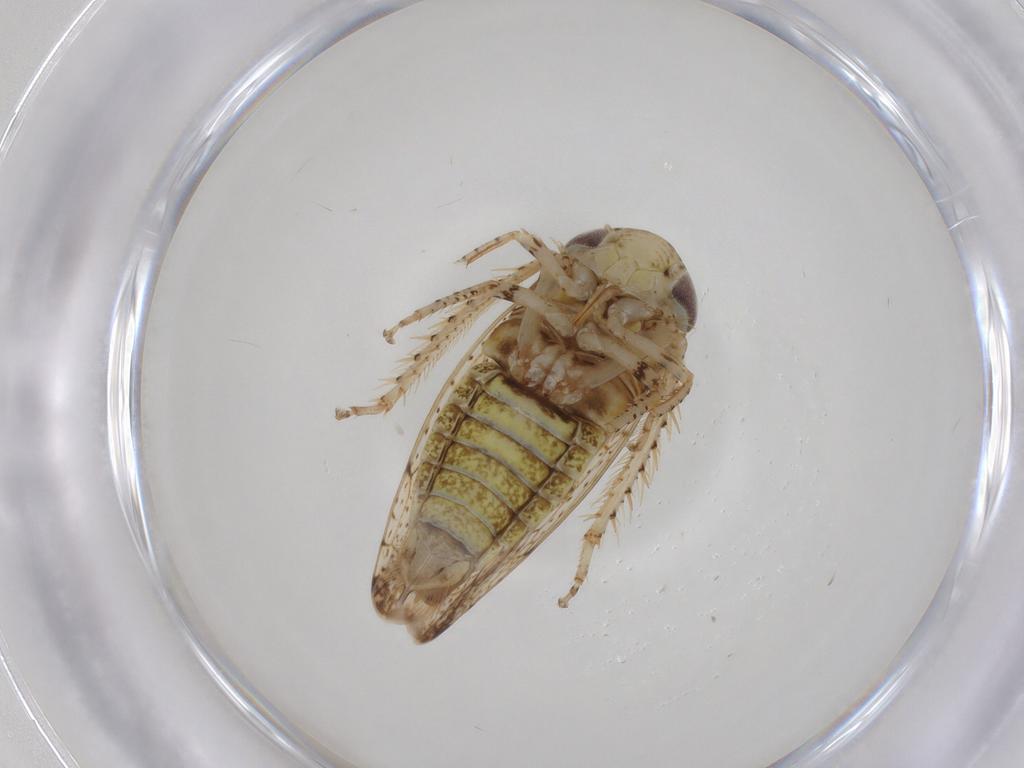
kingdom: Animalia
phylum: Arthropoda
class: Insecta
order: Hemiptera
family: Cicadellidae
